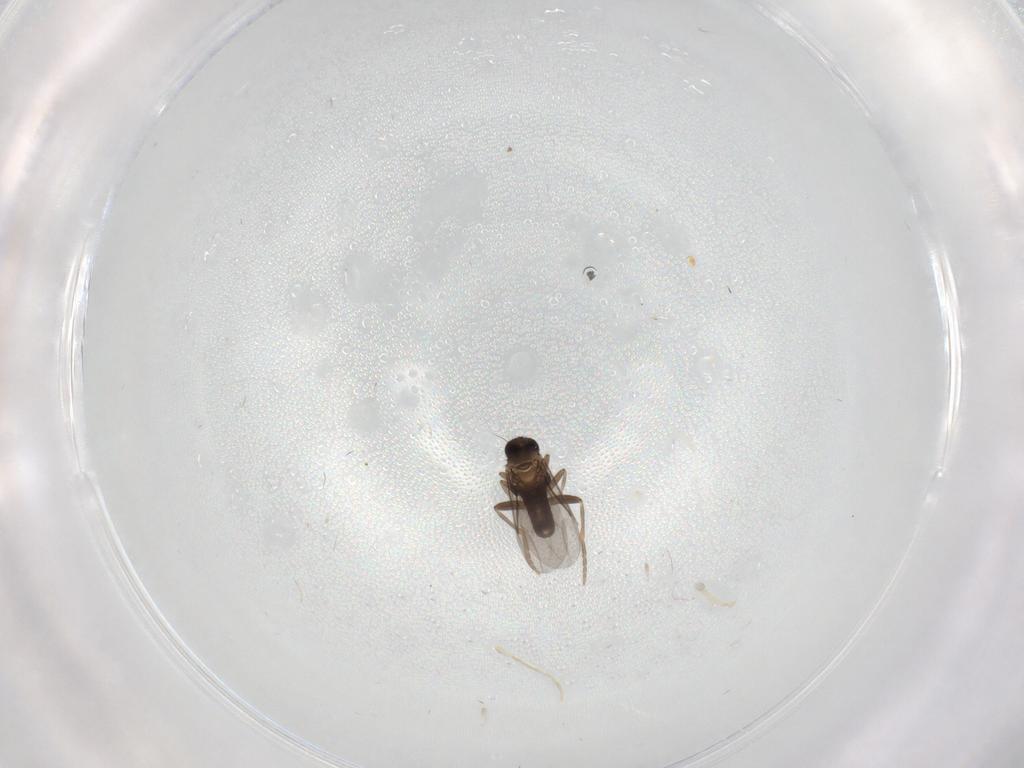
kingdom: Animalia
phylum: Arthropoda
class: Insecta
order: Diptera
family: Cecidomyiidae
